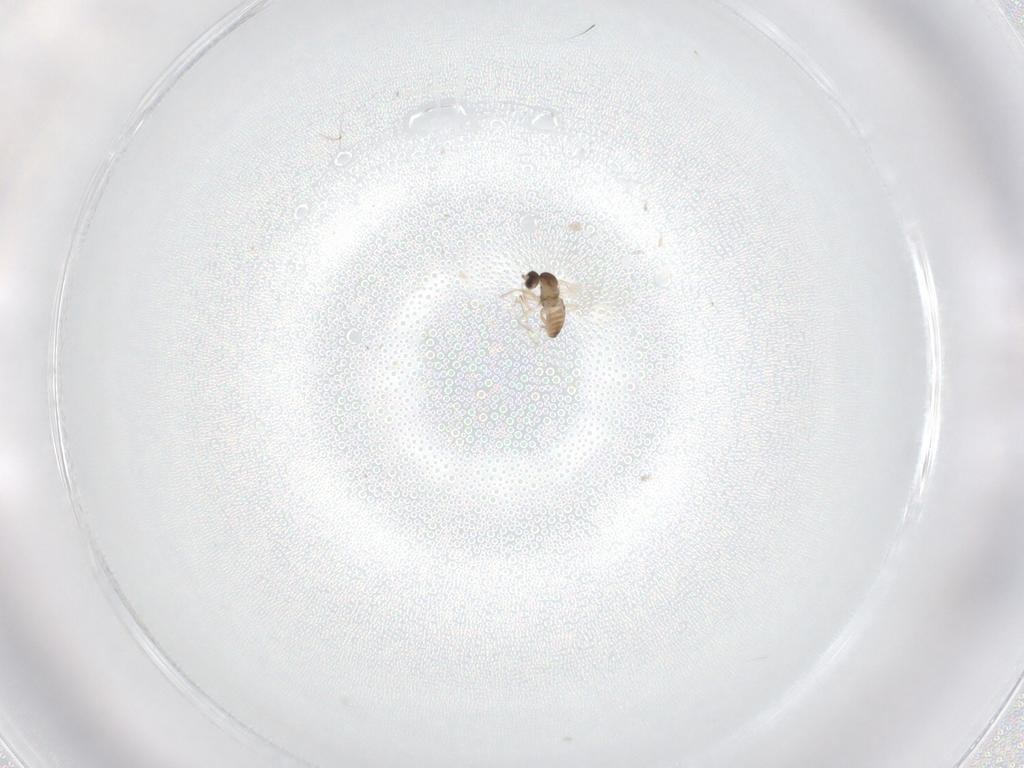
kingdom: Animalia
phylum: Arthropoda
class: Insecta
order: Diptera
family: Cecidomyiidae
